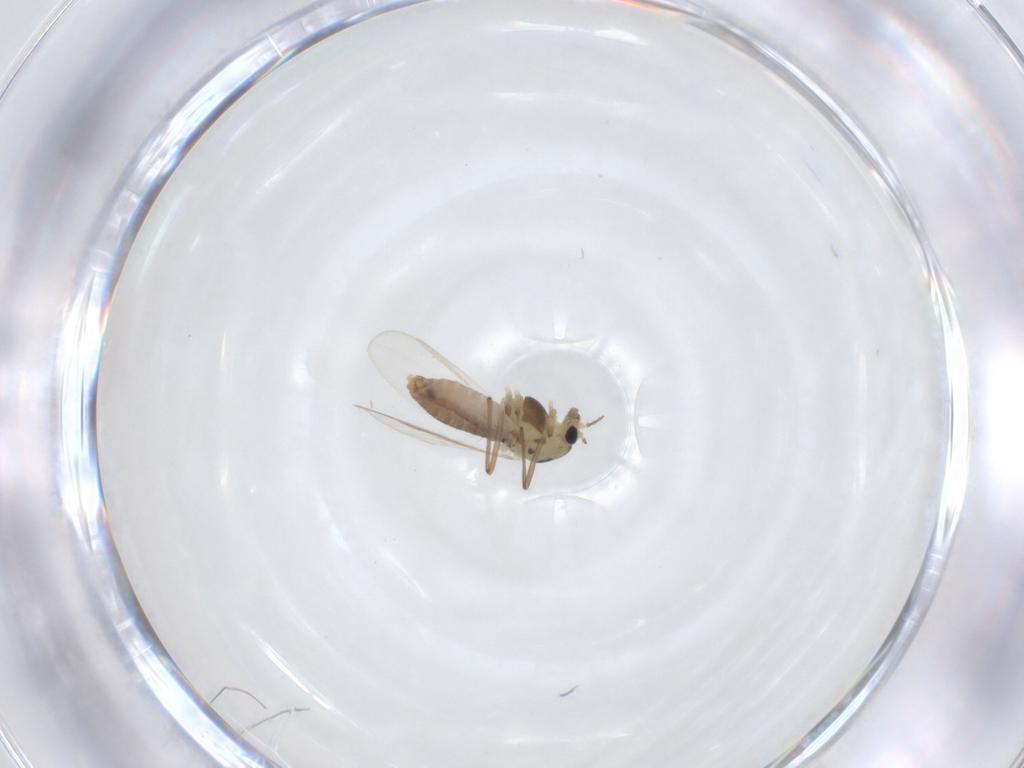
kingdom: Animalia
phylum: Arthropoda
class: Insecta
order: Diptera
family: Chironomidae
